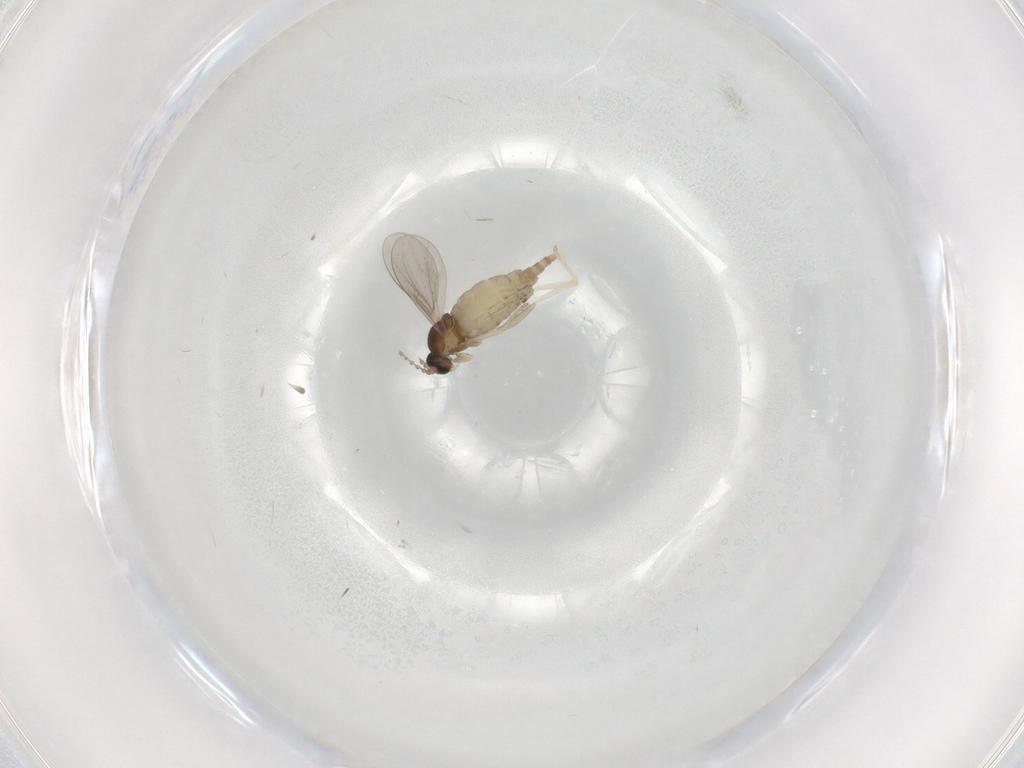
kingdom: Animalia
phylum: Arthropoda
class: Insecta
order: Diptera
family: Cecidomyiidae
